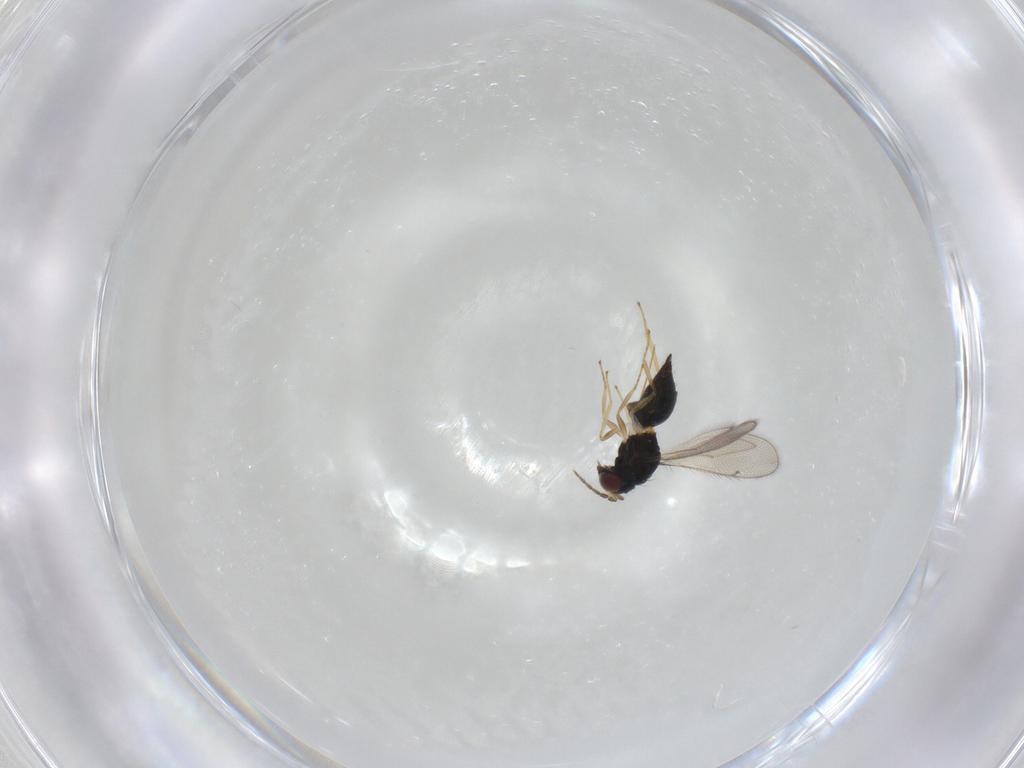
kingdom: Animalia
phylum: Arthropoda
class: Insecta
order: Hymenoptera
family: Eulophidae
